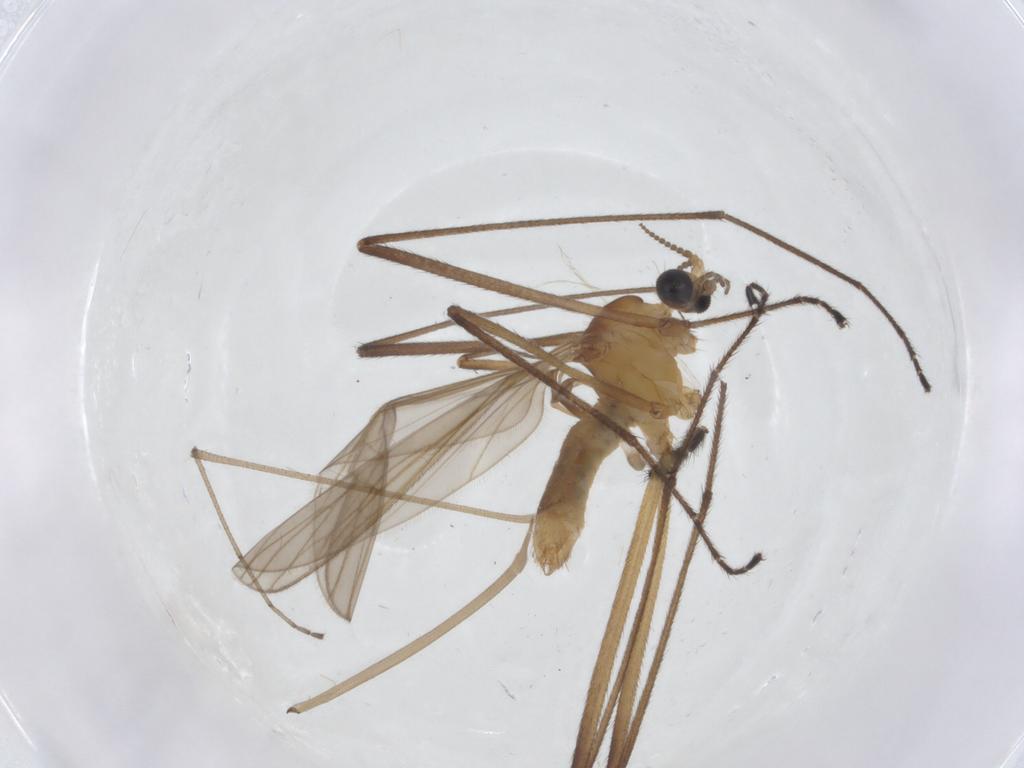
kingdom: Animalia
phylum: Arthropoda
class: Insecta
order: Diptera
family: Limoniidae
